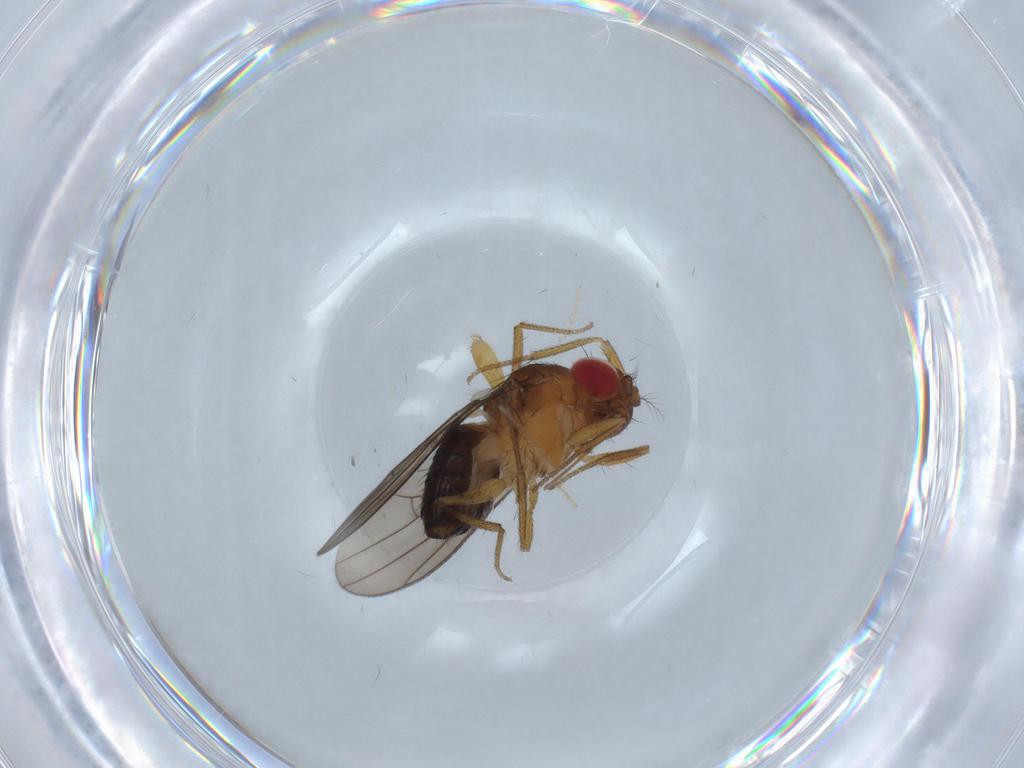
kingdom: Animalia
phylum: Arthropoda
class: Insecta
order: Diptera
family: Drosophilidae
